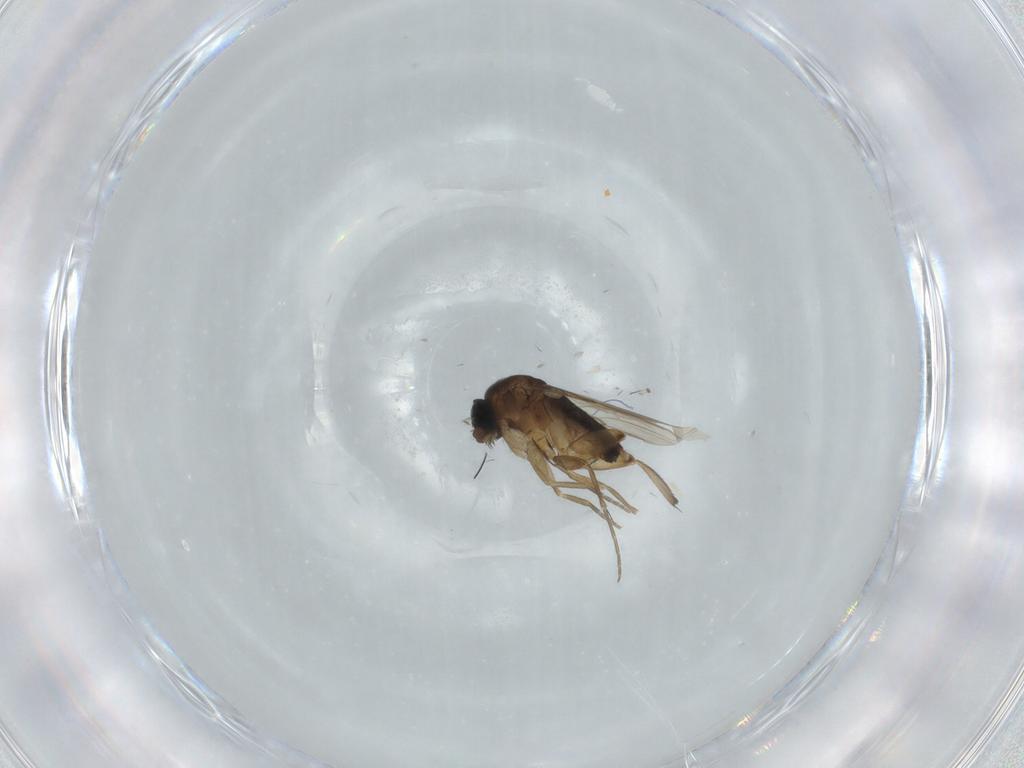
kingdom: Animalia
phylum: Arthropoda
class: Insecta
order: Diptera
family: Phoridae
